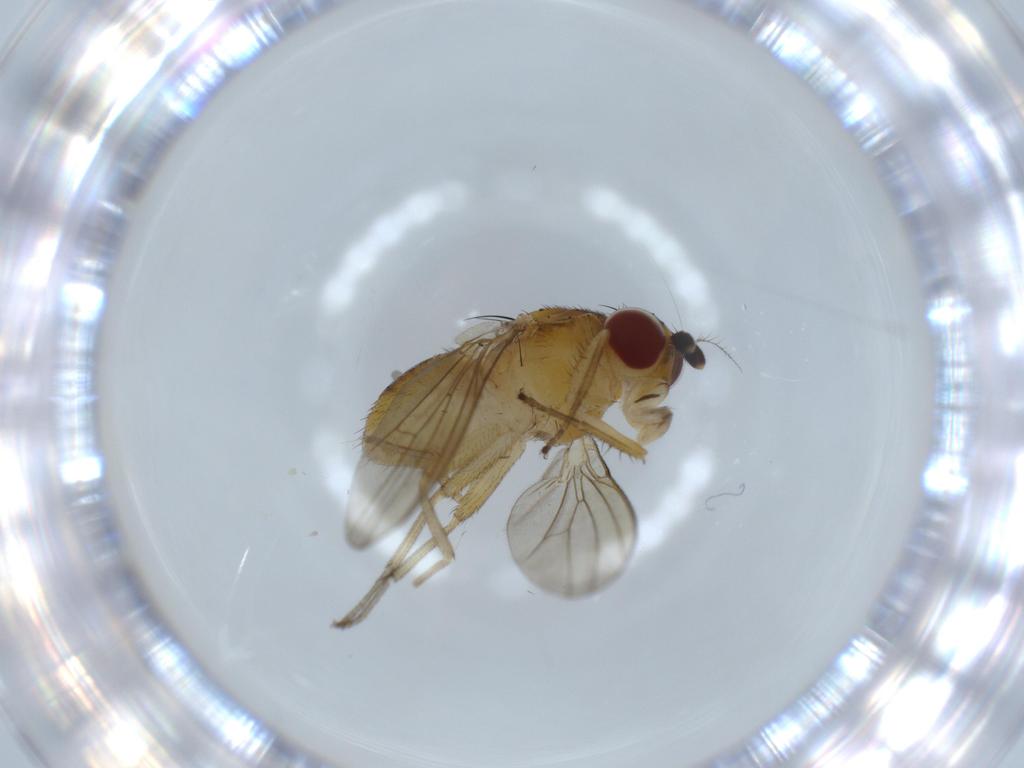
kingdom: Animalia
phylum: Arthropoda
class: Insecta
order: Diptera
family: Lauxaniidae
